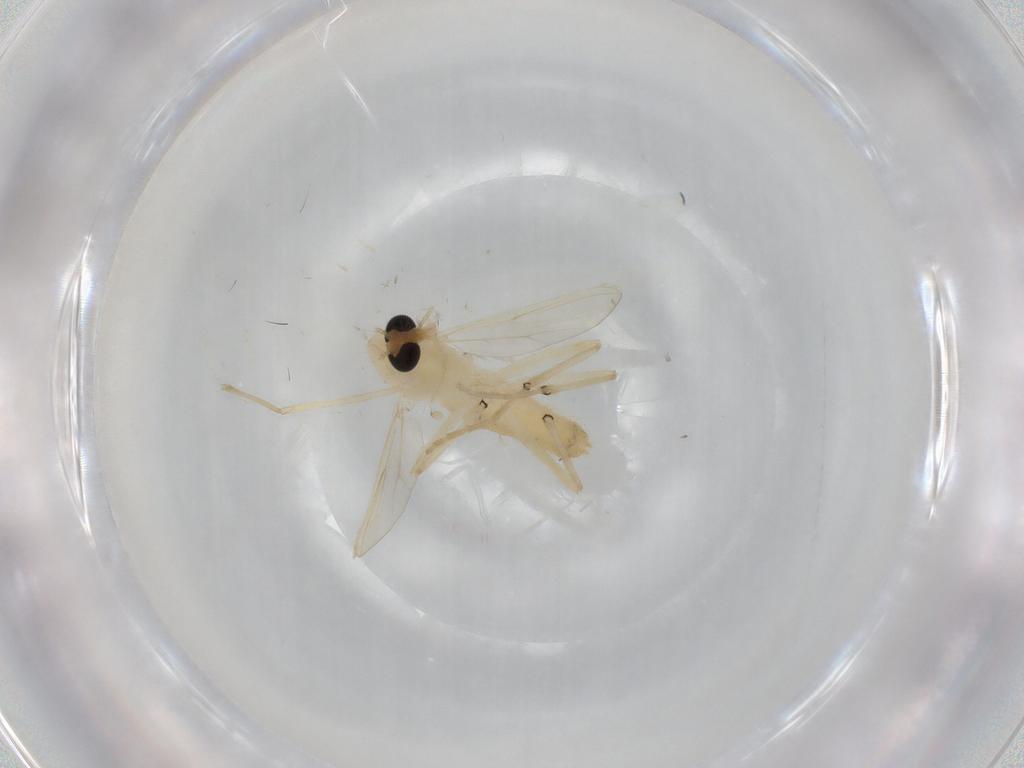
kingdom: Animalia
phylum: Arthropoda
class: Insecta
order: Diptera
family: Chironomidae
